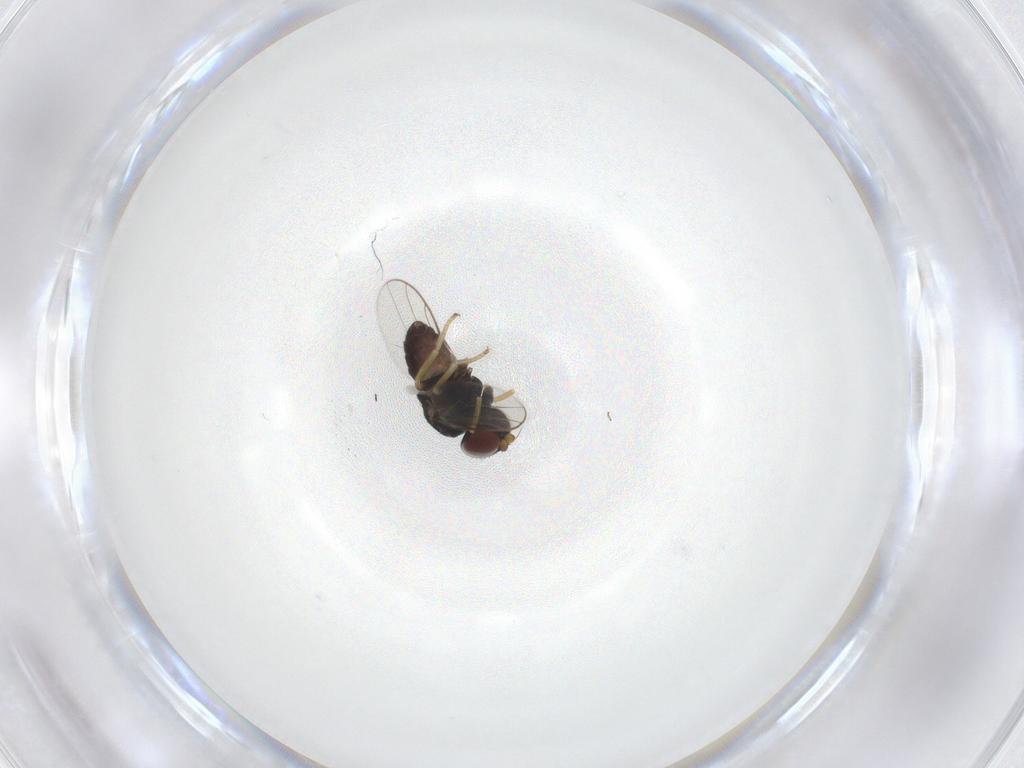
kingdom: Animalia
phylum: Arthropoda
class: Insecta
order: Diptera
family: Chloropidae
